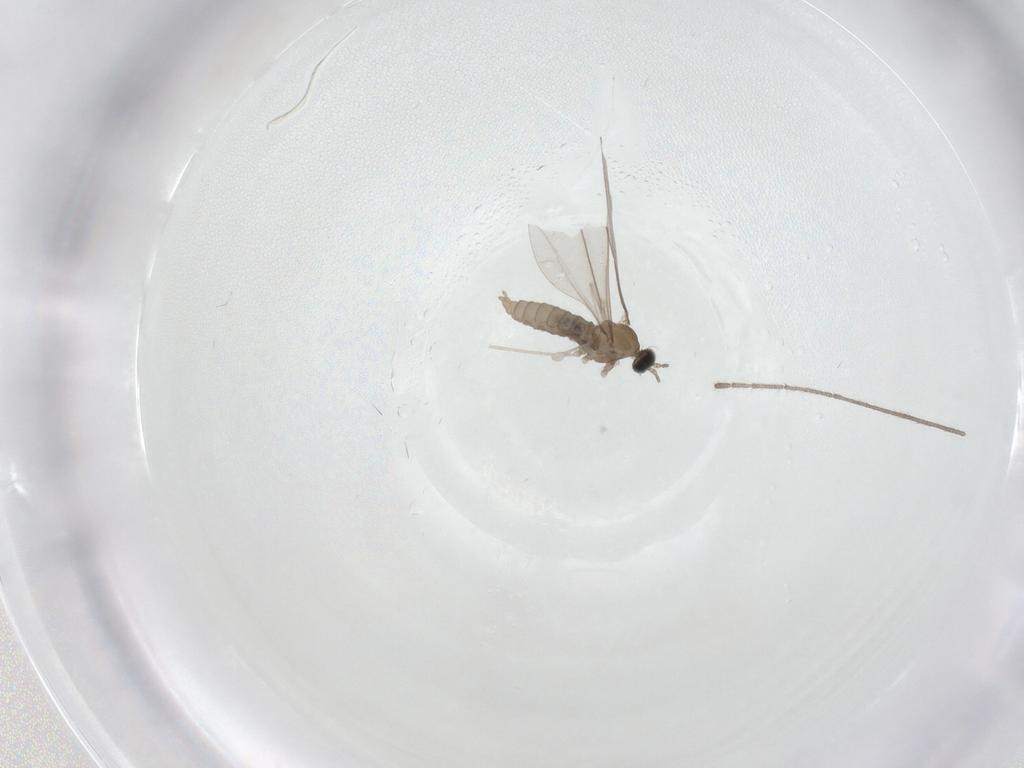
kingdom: Animalia
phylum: Arthropoda
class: Insecta
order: Diptera
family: Cecidomyiidae
